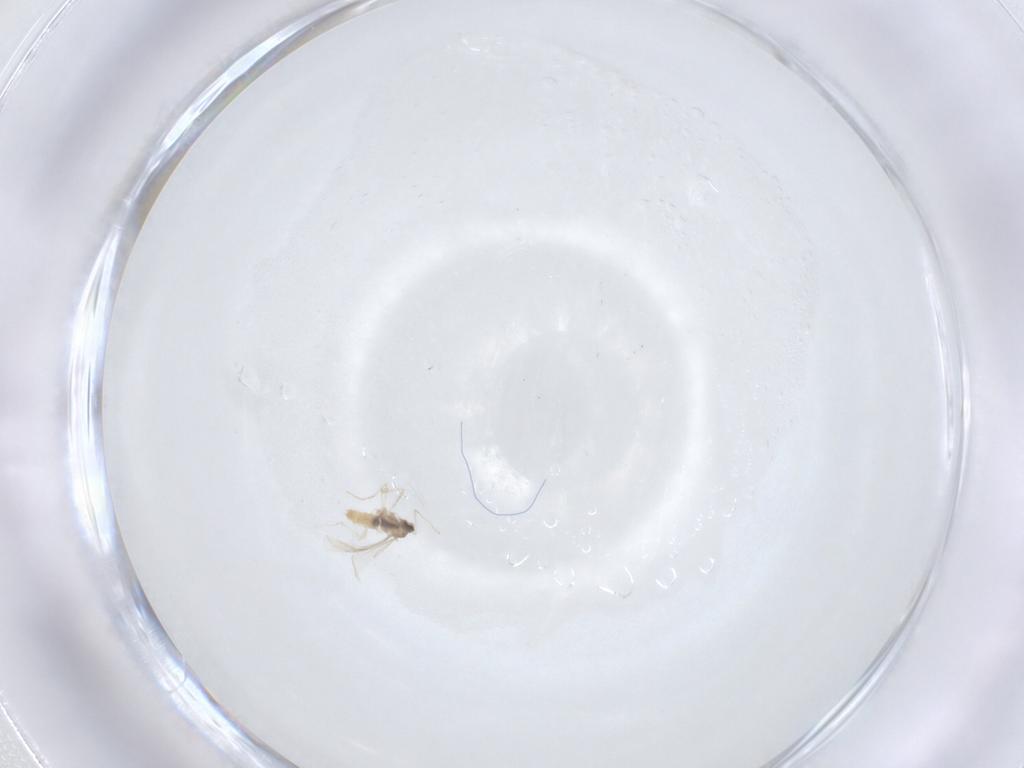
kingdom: Animalia
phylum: Arthropoda
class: Insecta
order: Diptera
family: Cecidomyiidae
